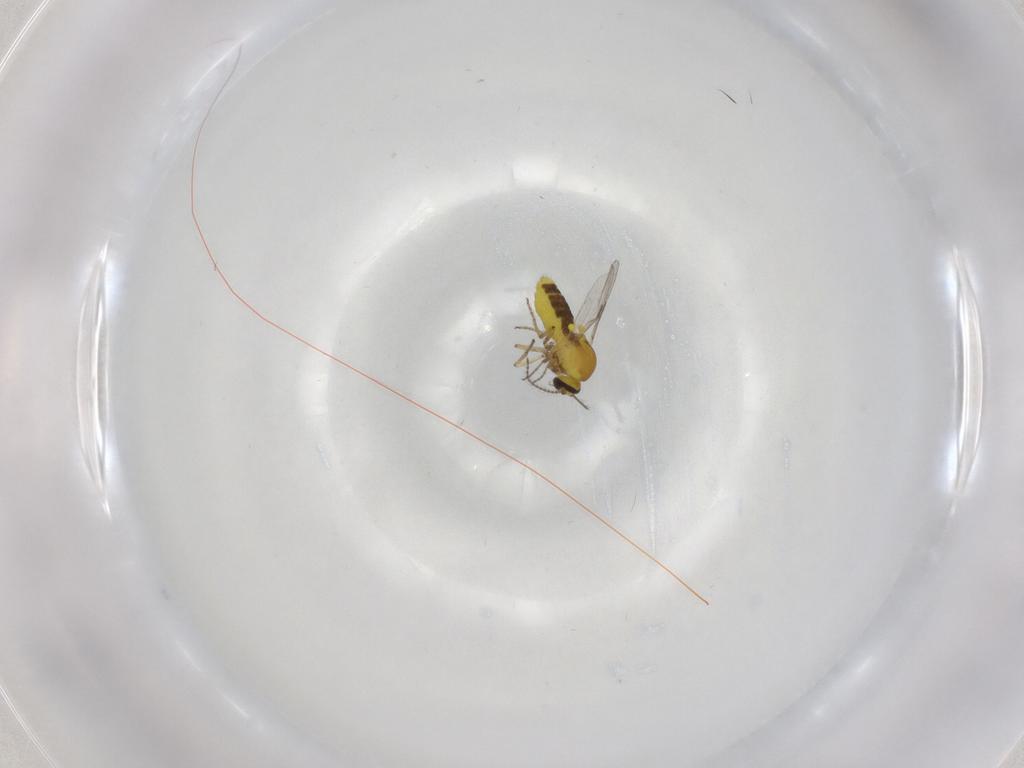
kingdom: Animalia
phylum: Arthropoda
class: Insecta
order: Diptera
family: Ceratopogonidae
